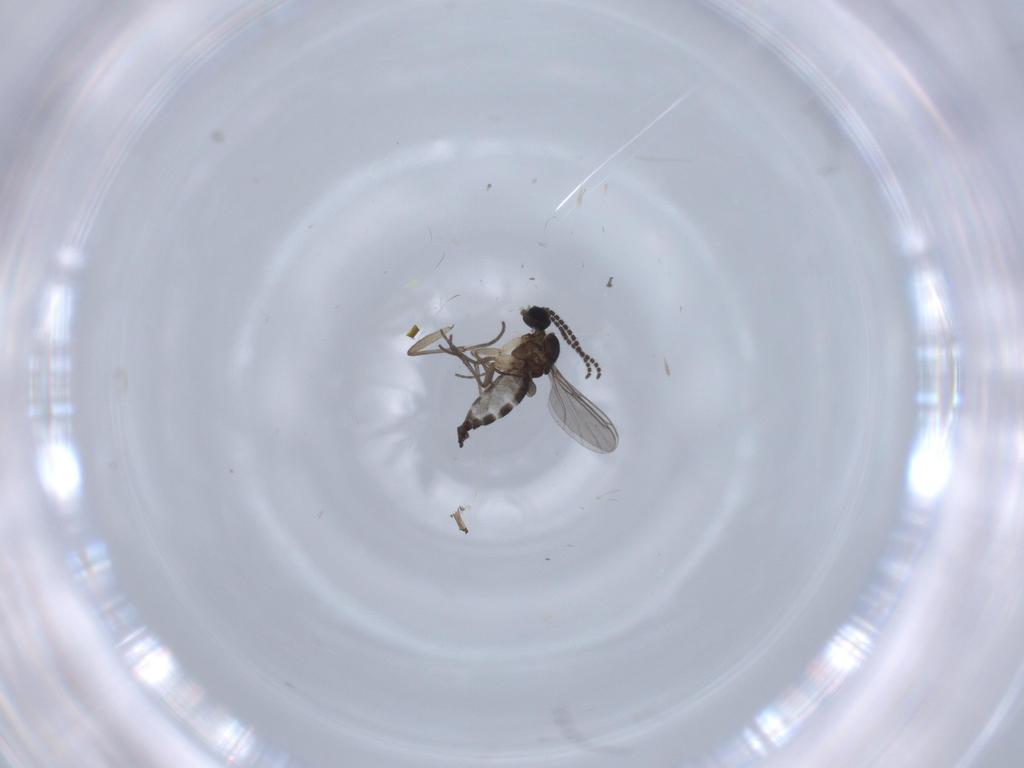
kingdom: Animalia
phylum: Arthropoda
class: Insecta
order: Diptera
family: Sciaridae
